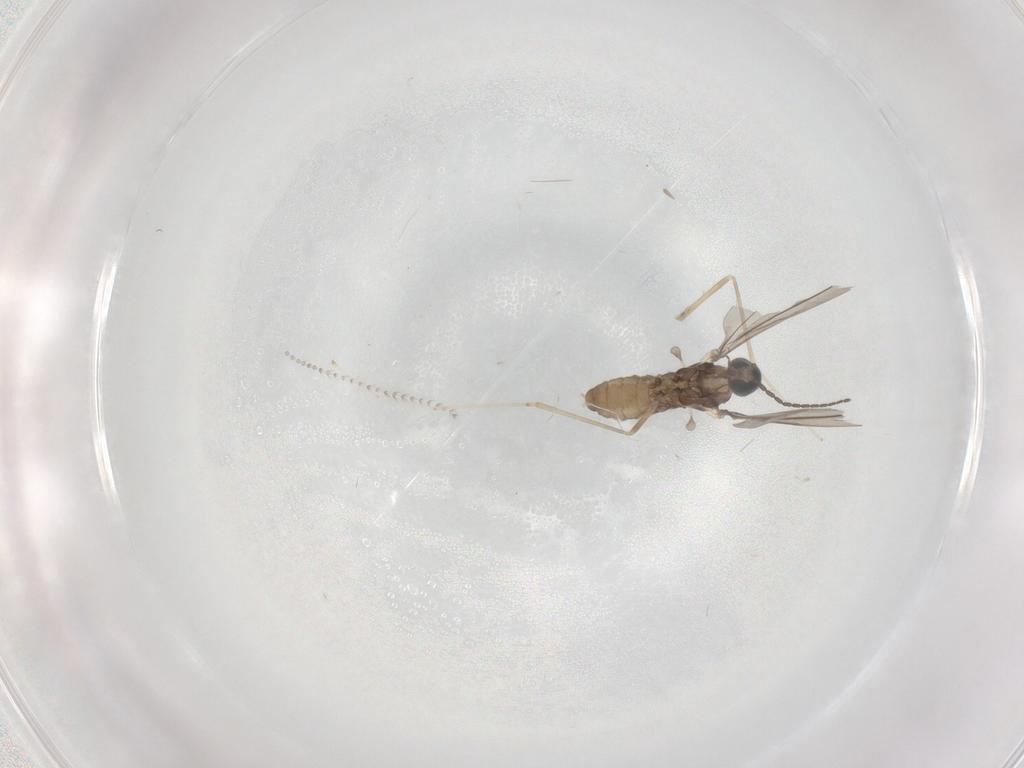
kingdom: Animalia
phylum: Arthropoda
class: Insecta
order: Diptera
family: Cecidomyiidae
